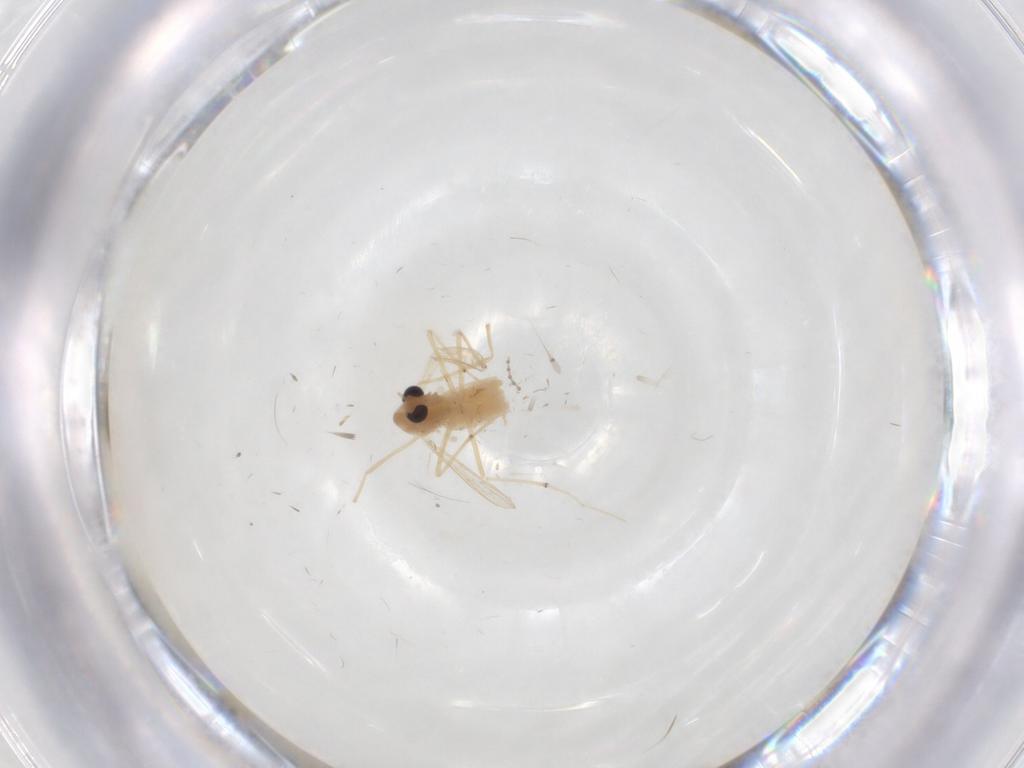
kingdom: Animalia
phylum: Arthropoda
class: Insecta
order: Diptera
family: Chironomidae
